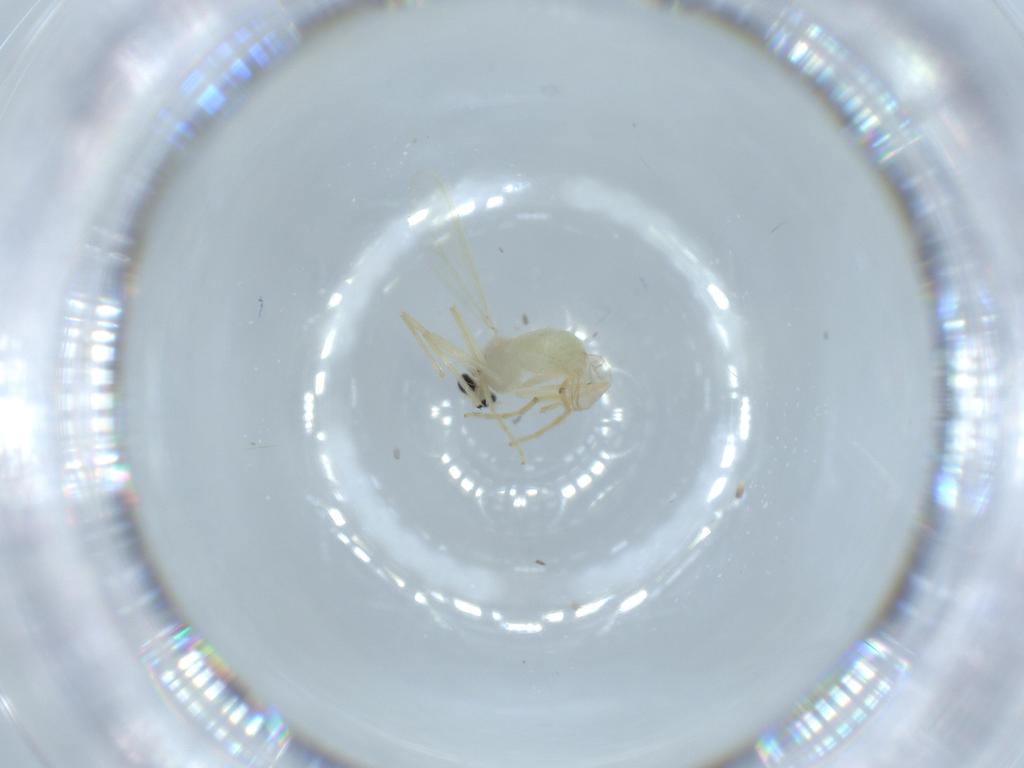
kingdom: Animalia
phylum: Arthropoda
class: Insecta
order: Diptera
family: Chironomidae
